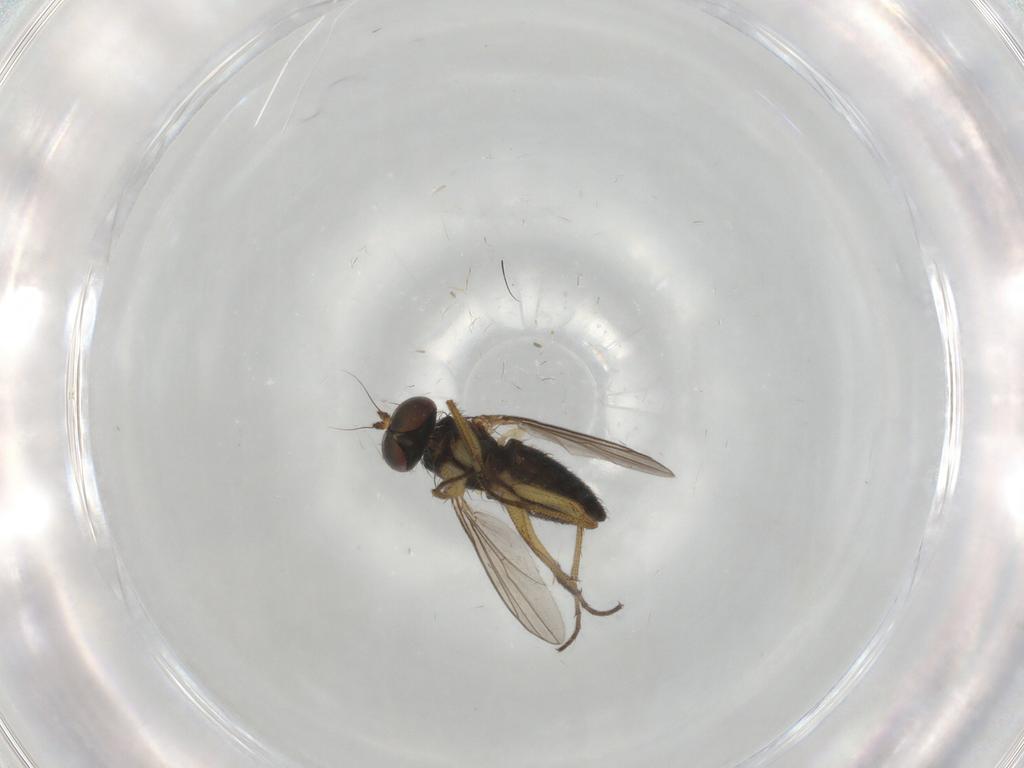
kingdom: Animalia
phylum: Arthropoda
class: Insecta
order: Diptera
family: Dolichopodidae
